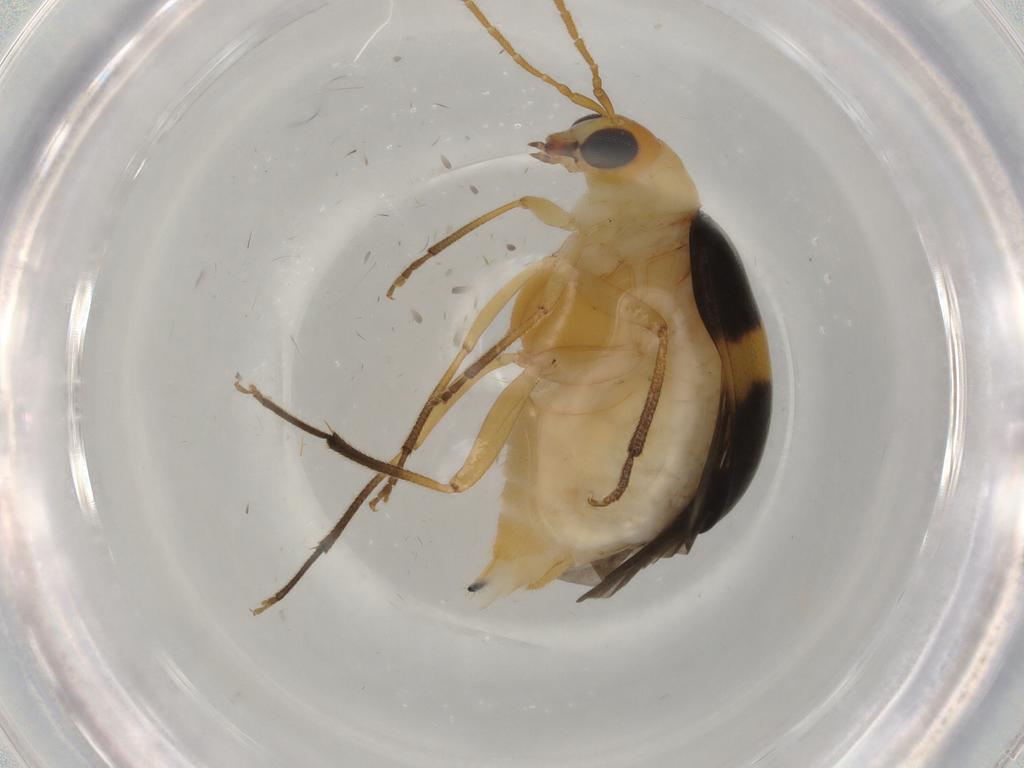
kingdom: Animalia
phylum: Arthropoda
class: Insecta
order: Coleoptera
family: Chrysomelidae
